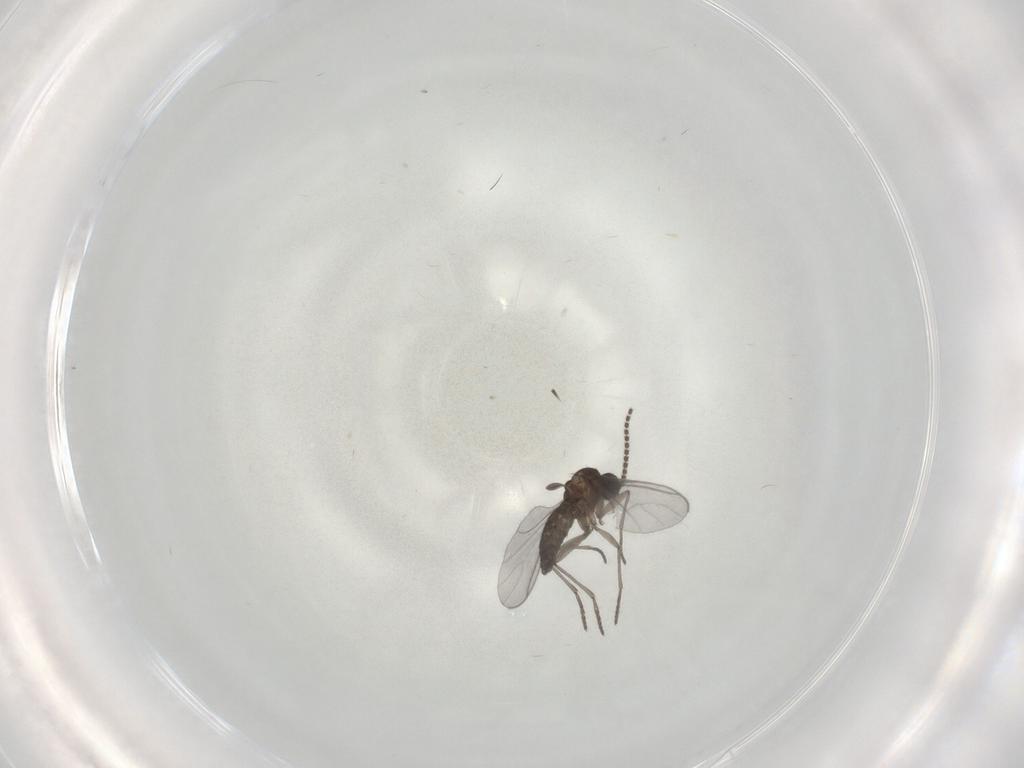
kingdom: Animalia
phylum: Arthropoda
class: Insecta
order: Diptera
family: Sciaridae
